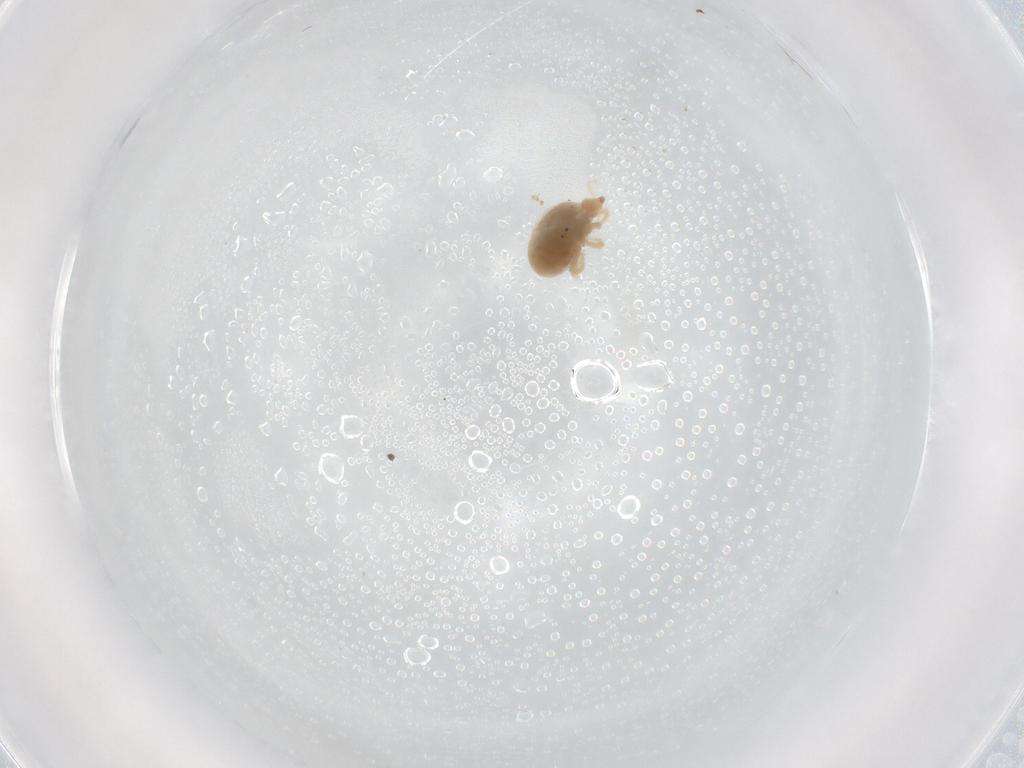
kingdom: Animalia
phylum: Arthropoda
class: Arachnida
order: Trombidiformes
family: Bdellidae
